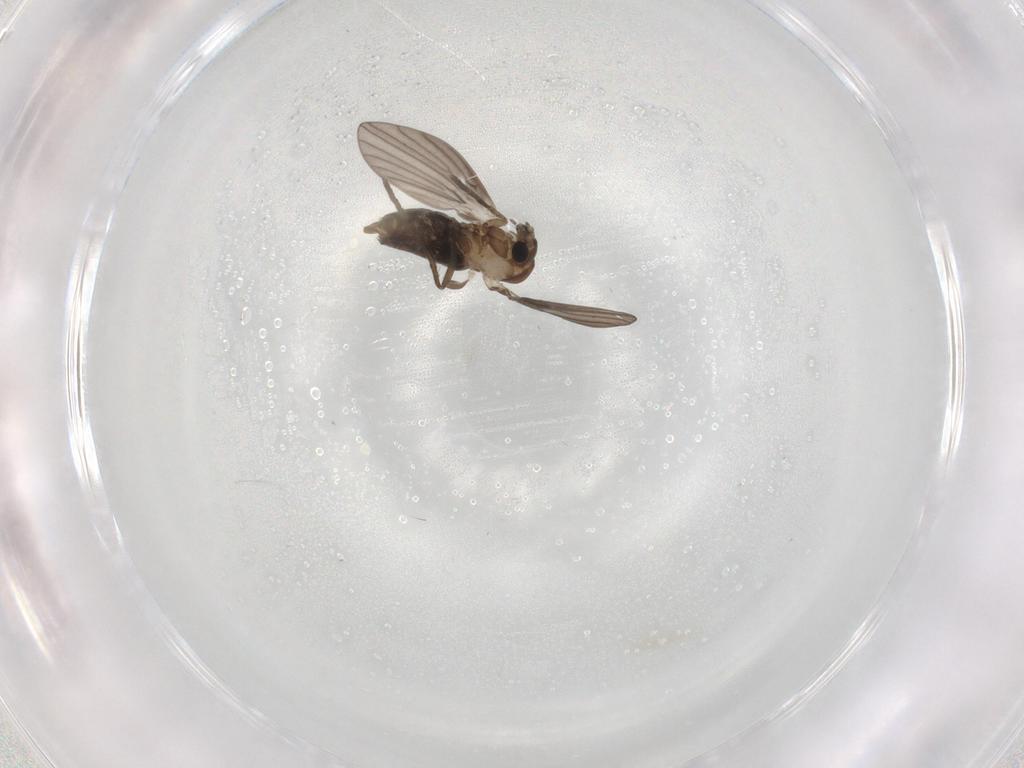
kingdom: Animalia
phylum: Arthropoda
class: Insecta
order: Diptera
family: Psychodidae
